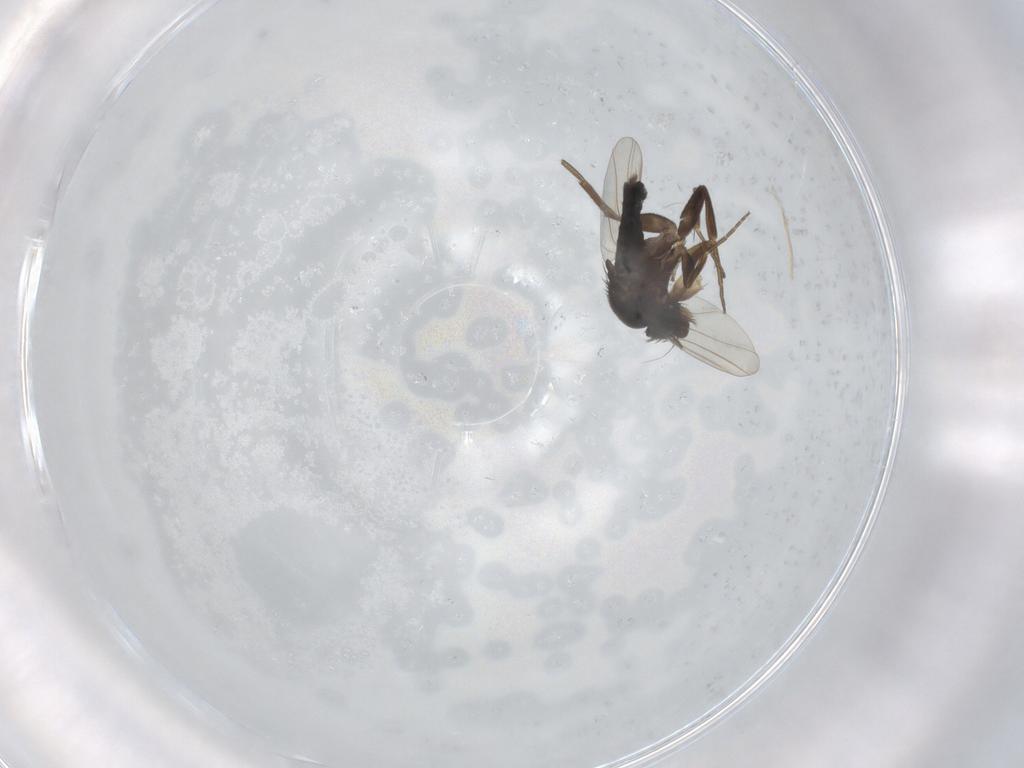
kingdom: Animalia
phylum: Arthropoda
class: Insecta
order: Diptera
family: Phoridae
